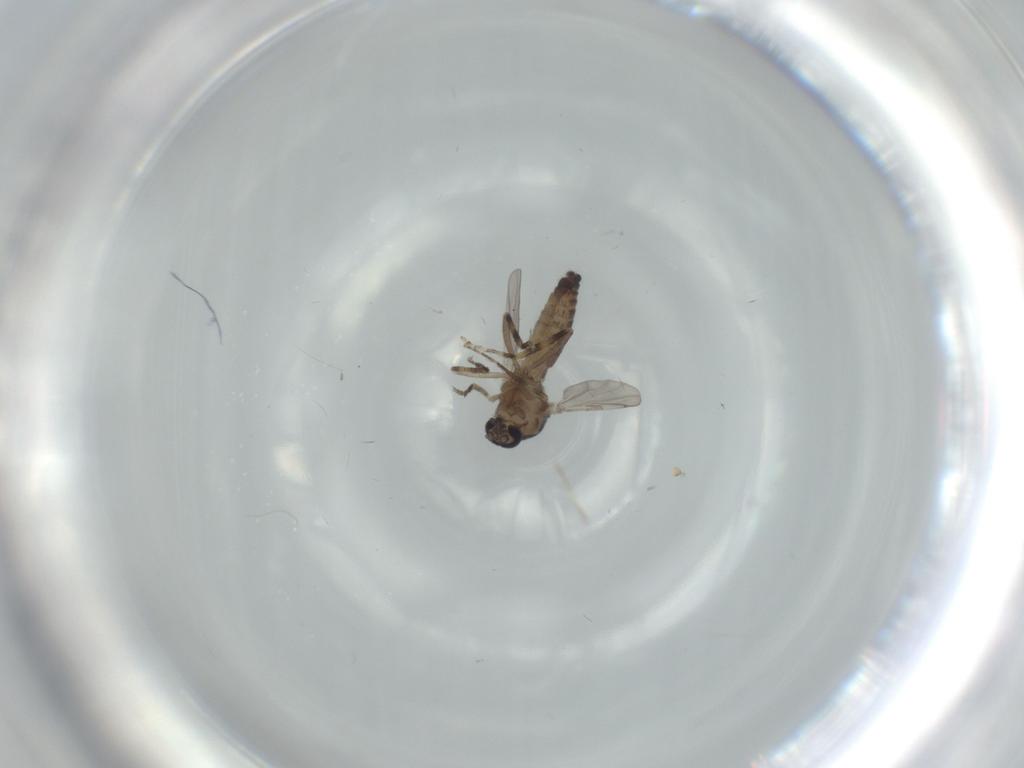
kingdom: Animalia
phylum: Arthropoda
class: Insecta
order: Diptera
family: Ceratopogonidae
